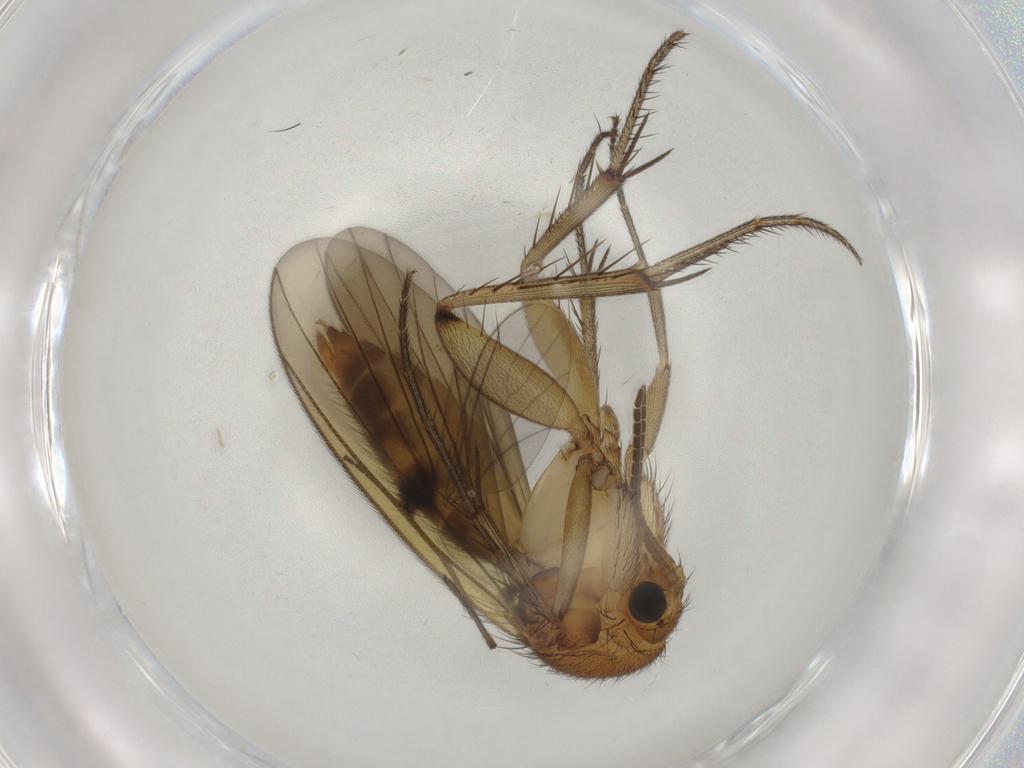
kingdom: Animalia
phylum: Arthropoda
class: Insecta
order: Diptera
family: Mycetophilidae
